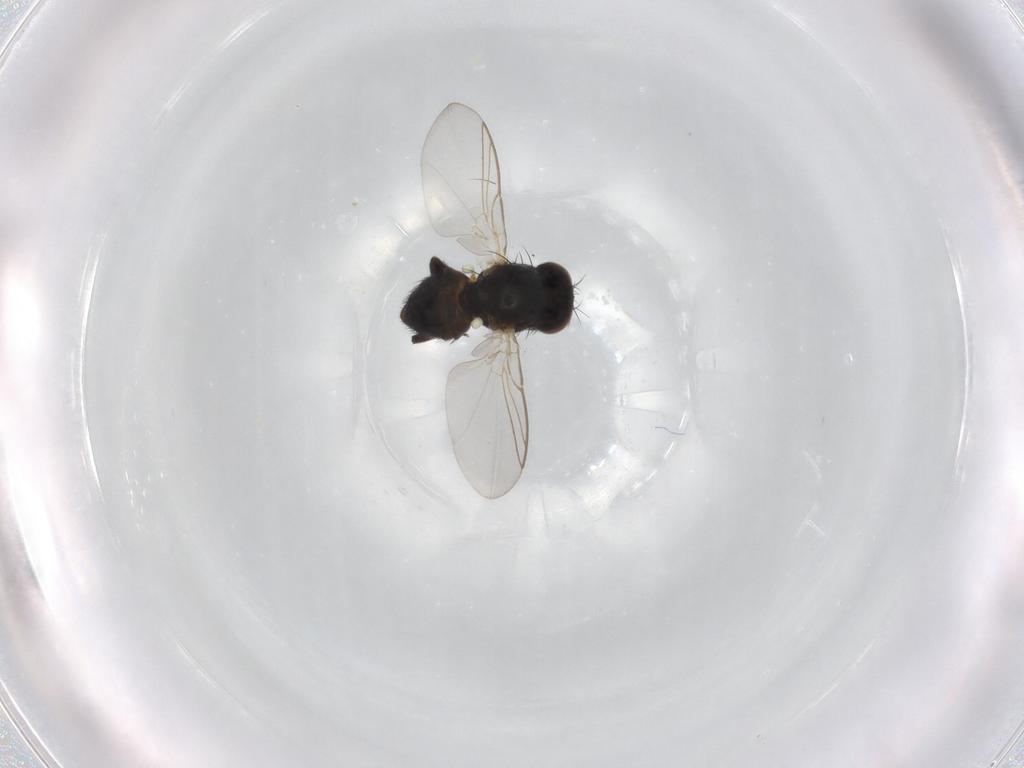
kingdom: Animalia
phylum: Arthropoda
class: Insecta
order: Diptera
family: Agromyzidae
